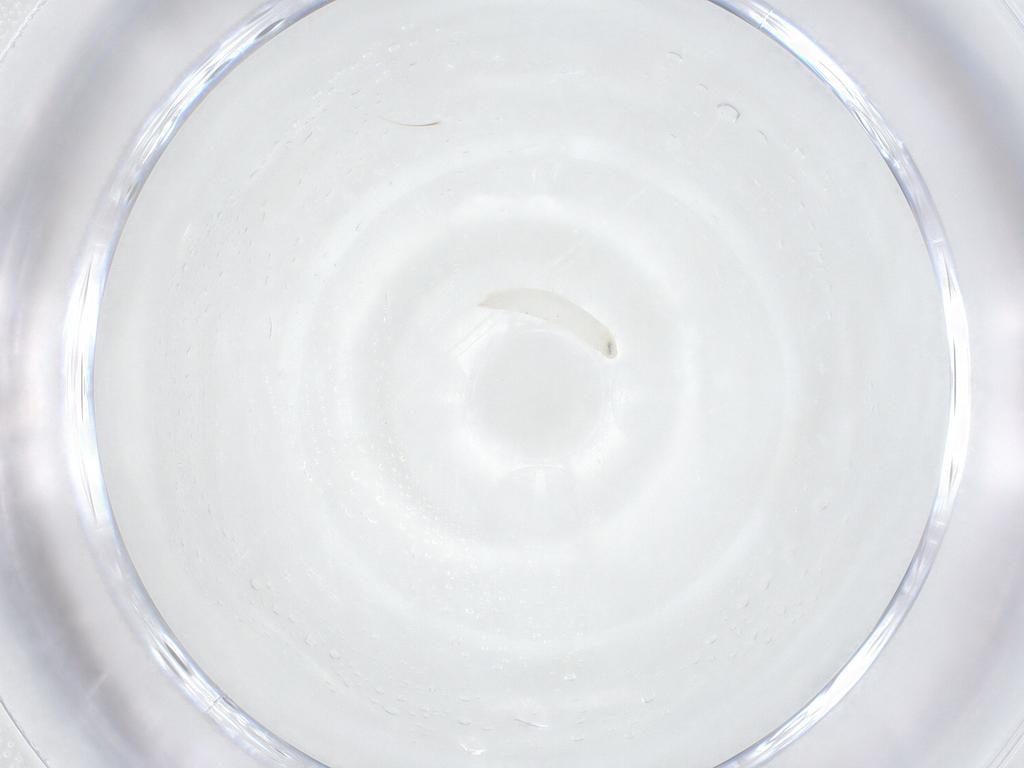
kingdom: Animalia
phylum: Arthropoda
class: Insecta
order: Diptera
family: Tachinidae
